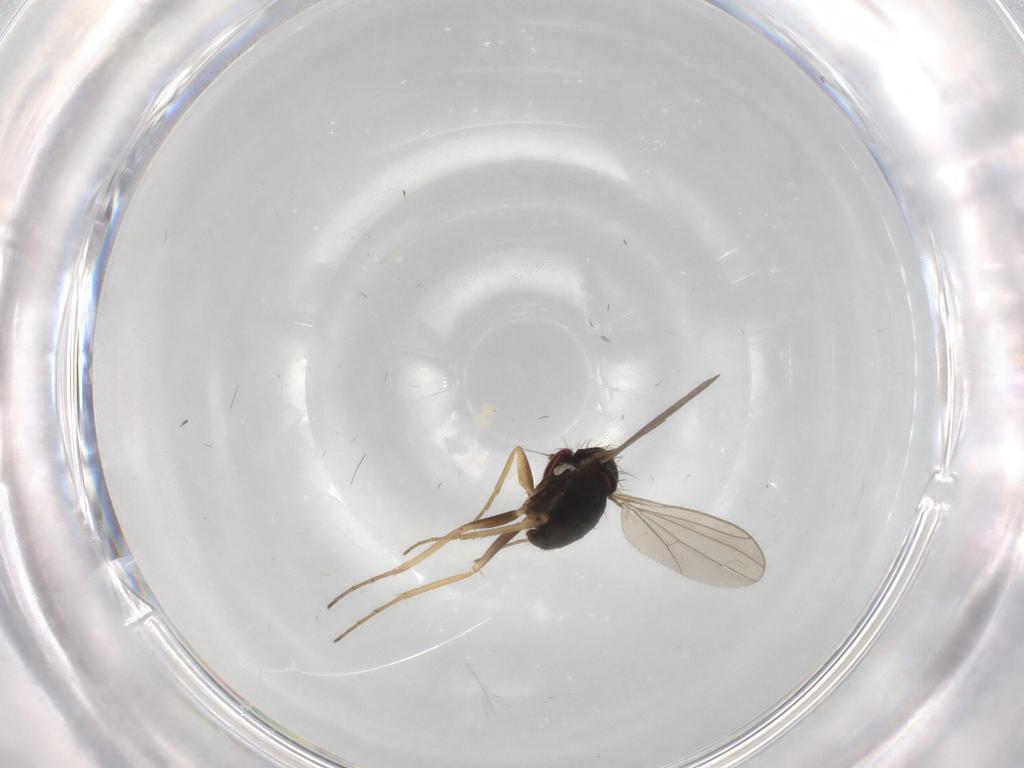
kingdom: Animalia
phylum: Arthropoda
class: Insecta
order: Diptera
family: Dolichopodidae
